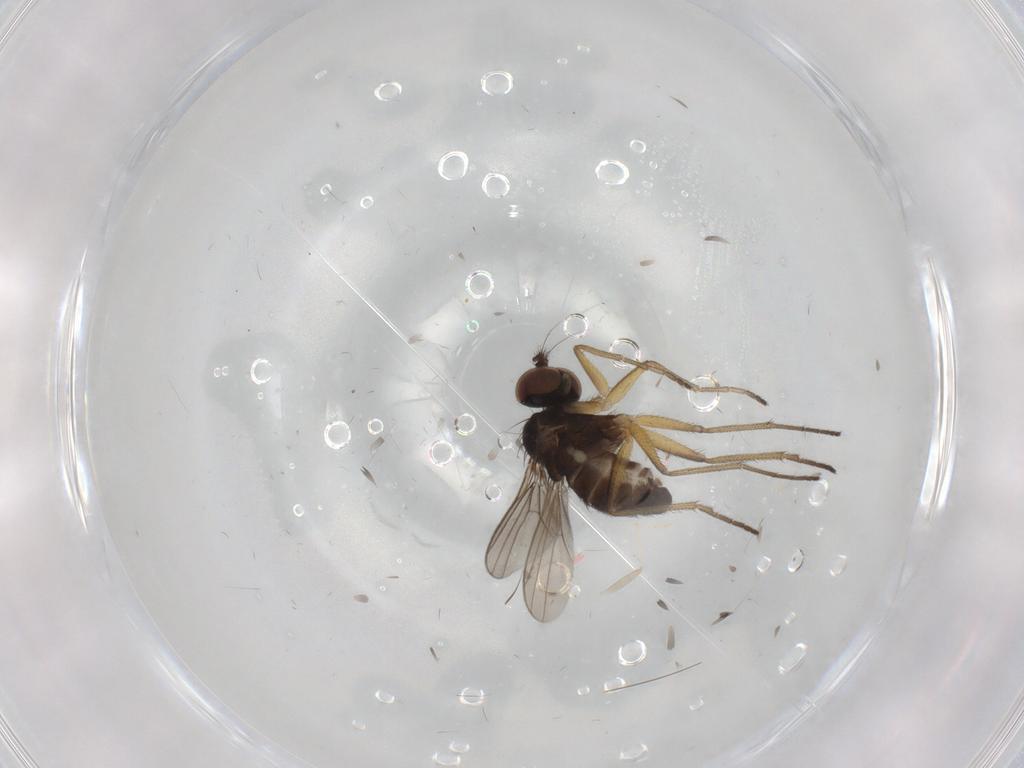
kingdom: Animalia
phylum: Arthropoda
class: Insecta
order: Diptera
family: Dolichopodidae
